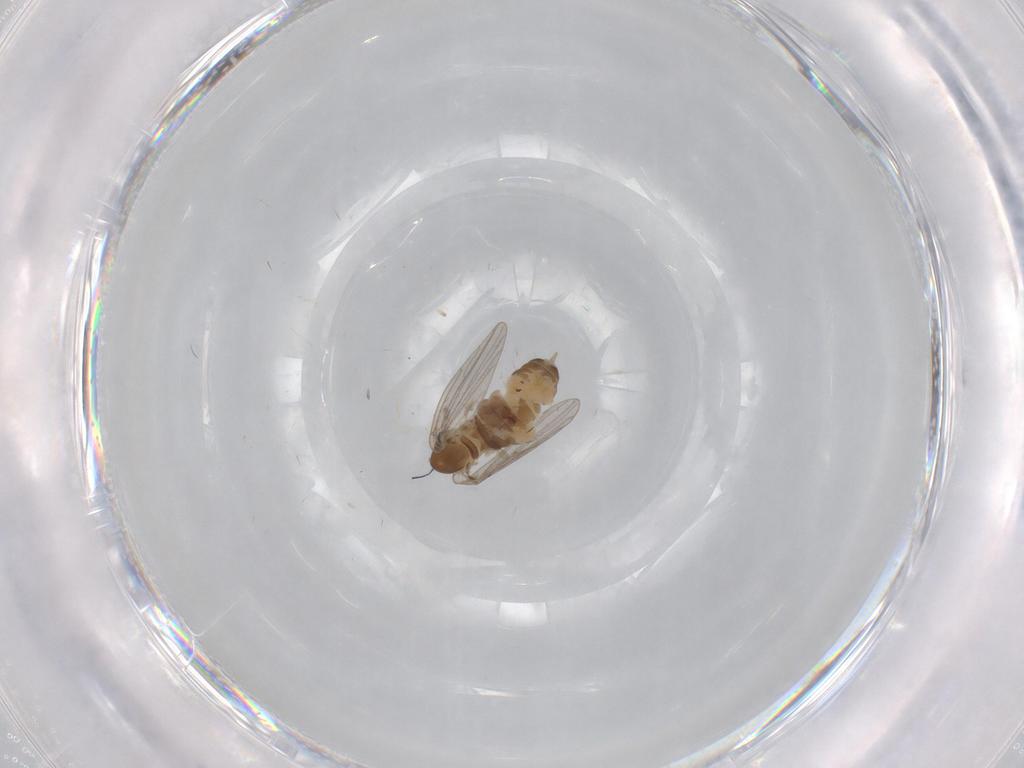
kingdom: Animalia
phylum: Arthropoda
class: Insecta
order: Diptera
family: Psychodidae
